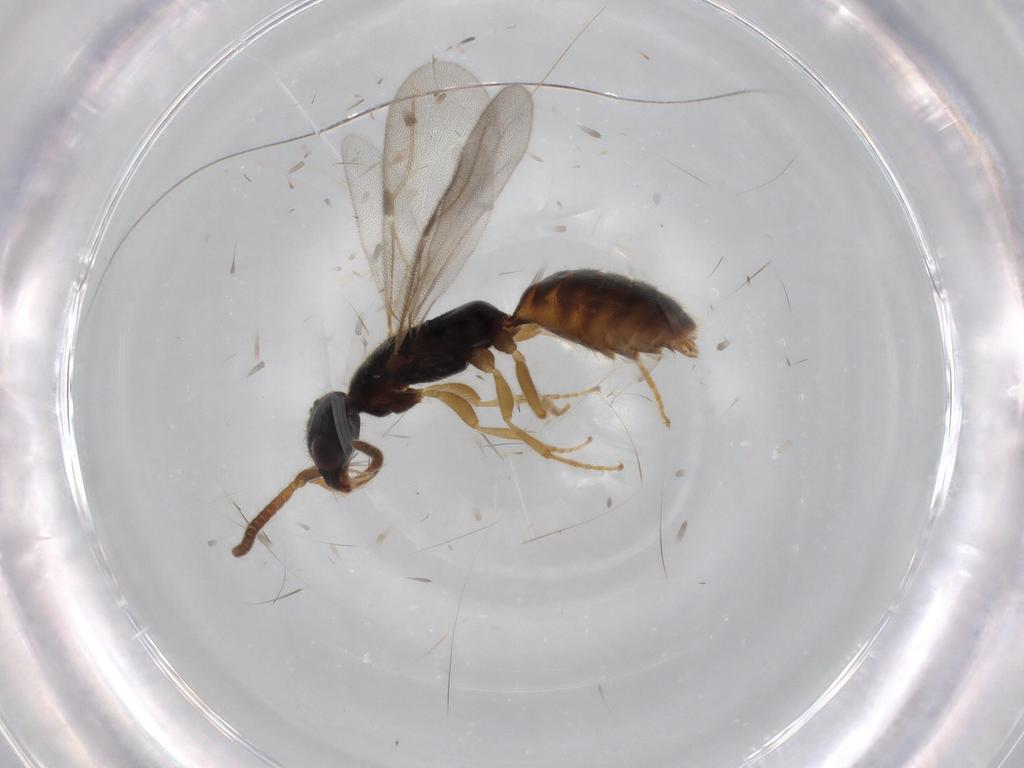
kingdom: Animalia
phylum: Arthropoda
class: Insecta
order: Hymenoptera
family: Bethylidae
